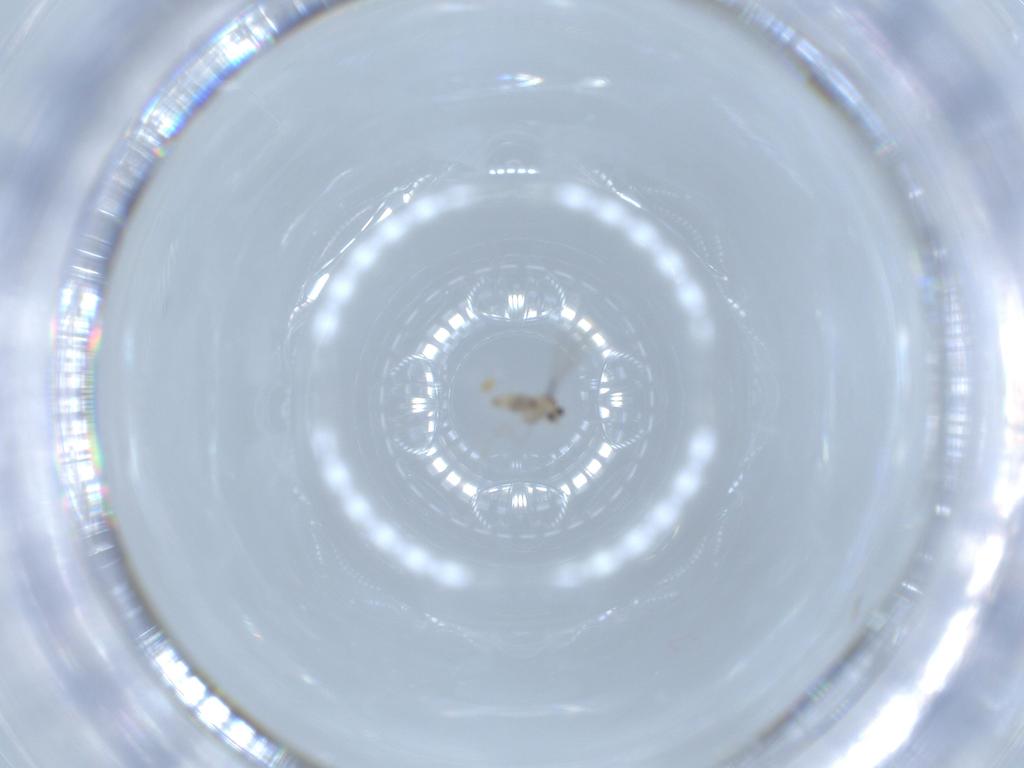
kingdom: Animalia
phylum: Arthropoda
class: Insecta
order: Diptera
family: Cecidomyiidae
